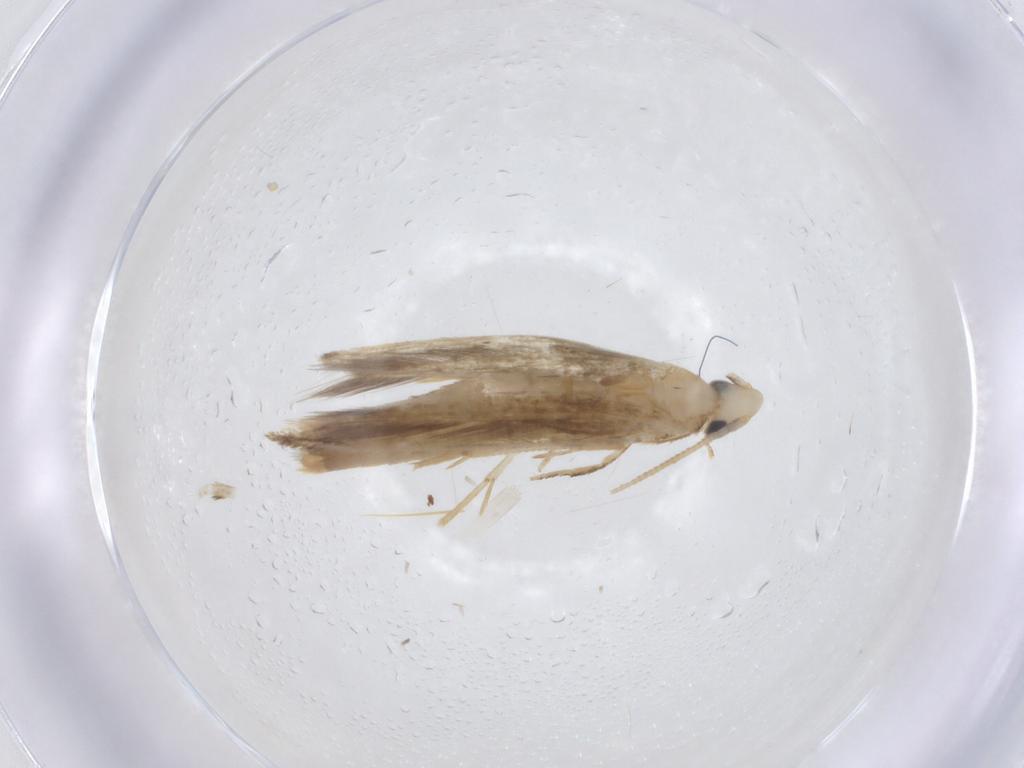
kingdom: Animalia
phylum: Arthropoda
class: Insecta
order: Lepidoptera
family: Tineidae
